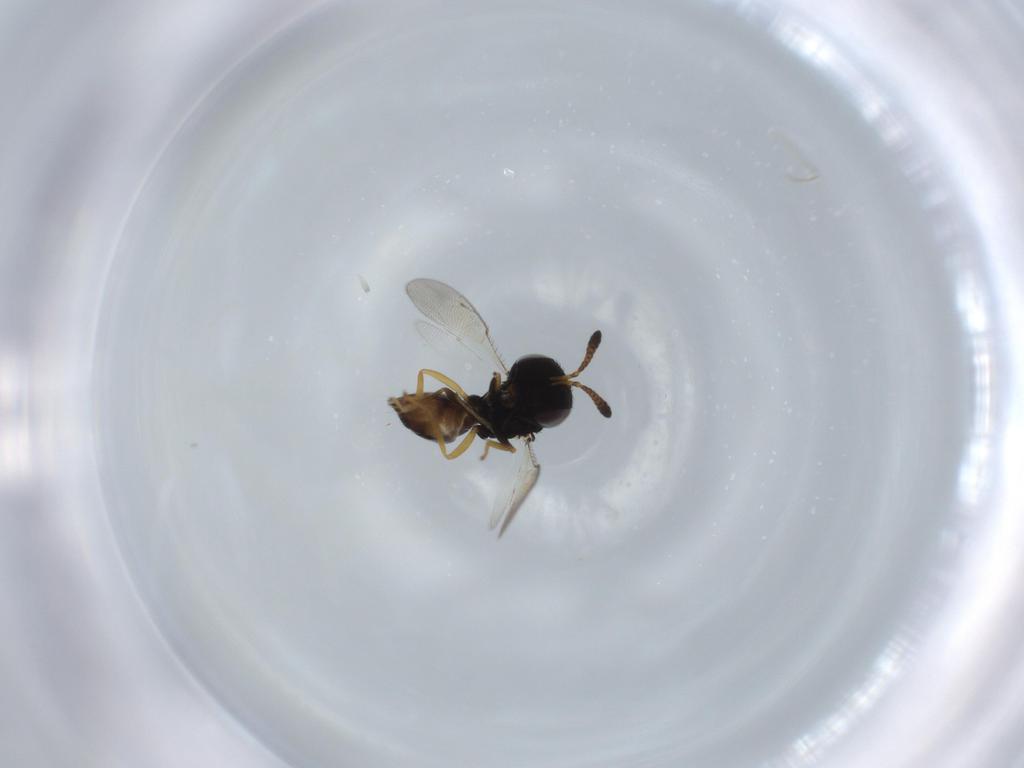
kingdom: Animalia
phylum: Arthropoda
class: Insecta
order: Hymenoptera
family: Pteromalidae
